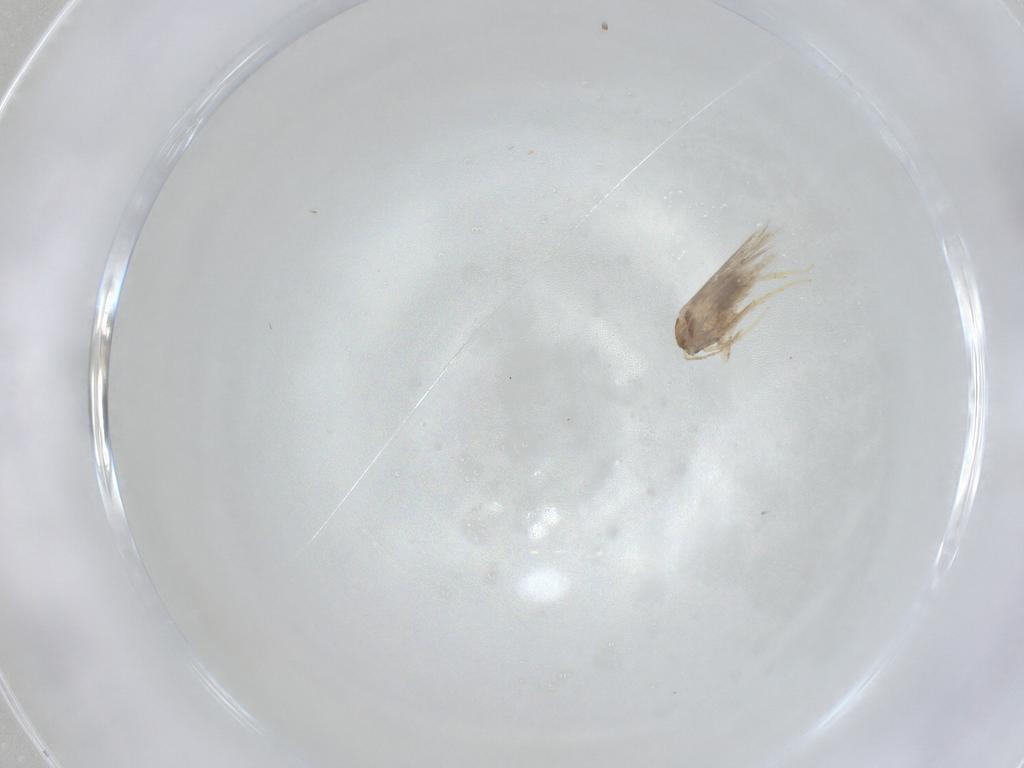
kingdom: Animalia
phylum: Arthropoda
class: Insecta
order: Lepidoptera
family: Nepticulidae
